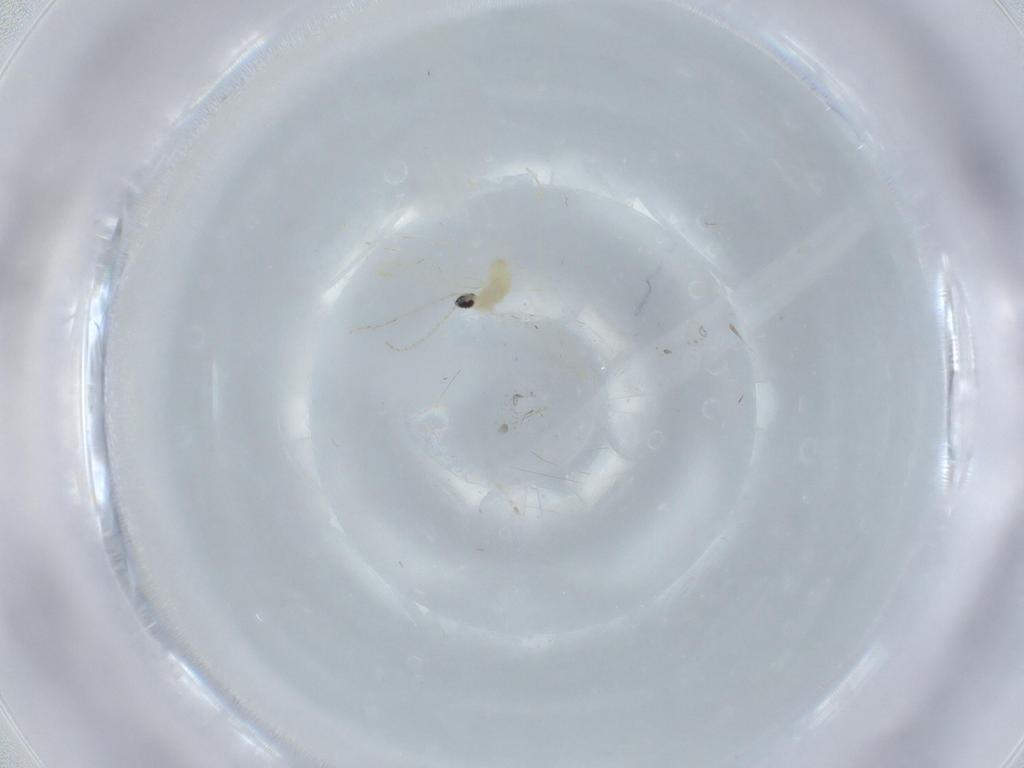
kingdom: Animalia
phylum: Arthropoda
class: Insecta
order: Diptera
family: Cecidomyiidae
